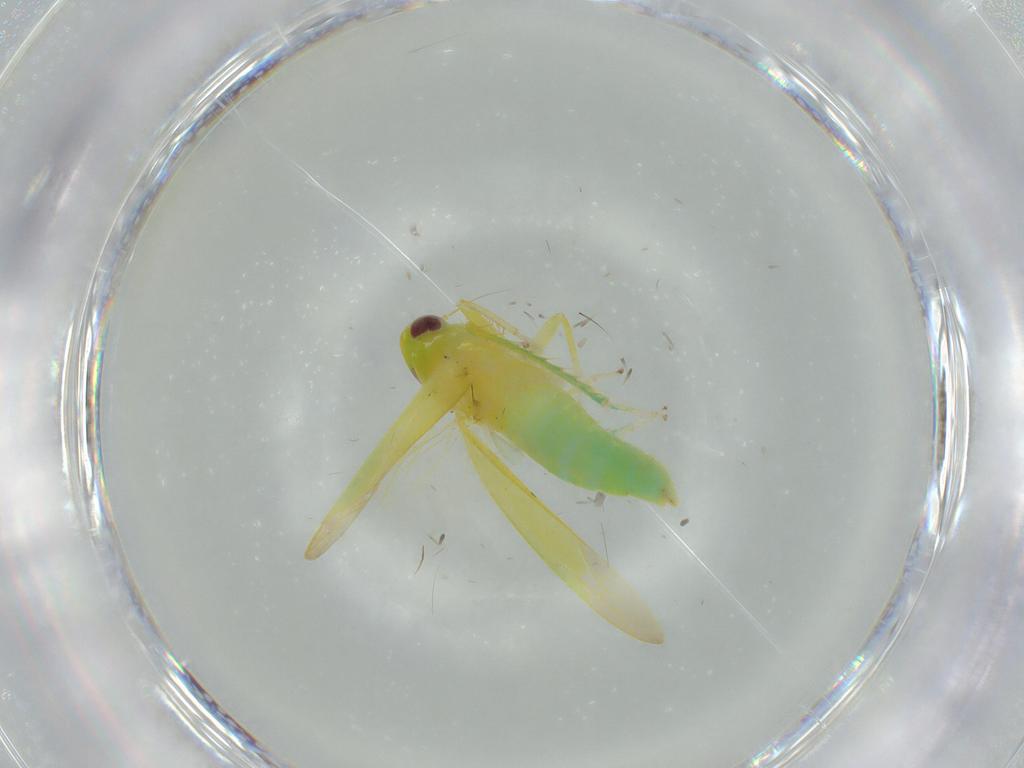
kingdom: Animalia
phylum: Arthropoda
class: Insecta
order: Hemiptera
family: Cicadellidae
